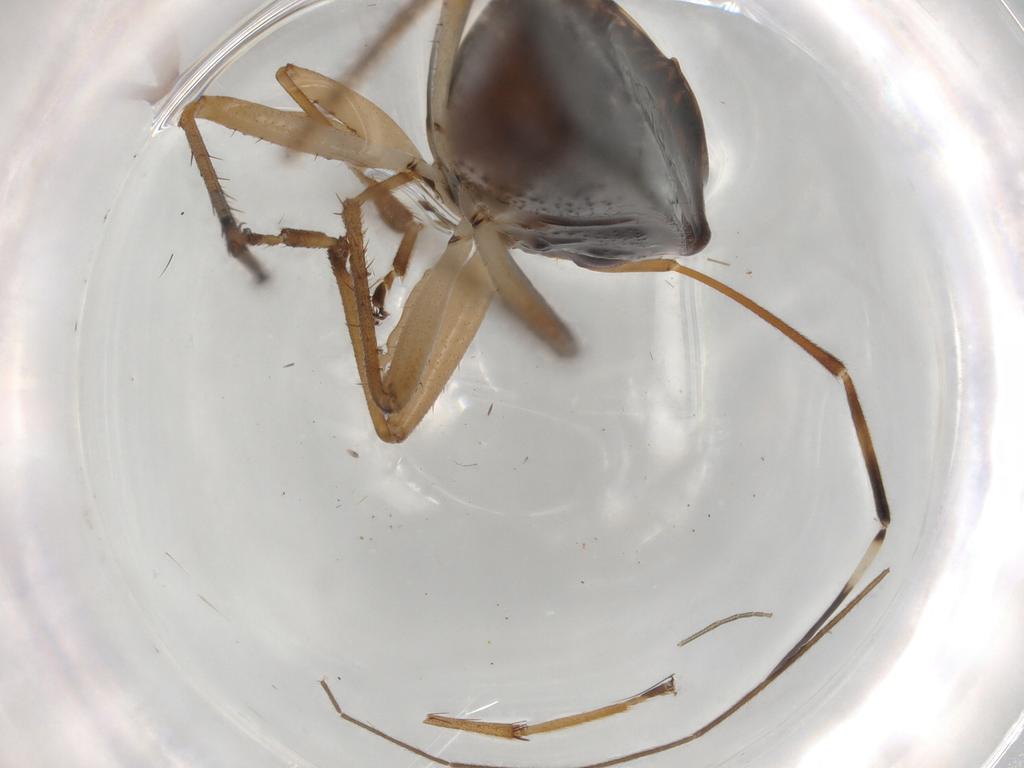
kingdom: Animalia
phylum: Arthropoda
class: Insecta
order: Hemiptera
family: Rhyparochromidae
